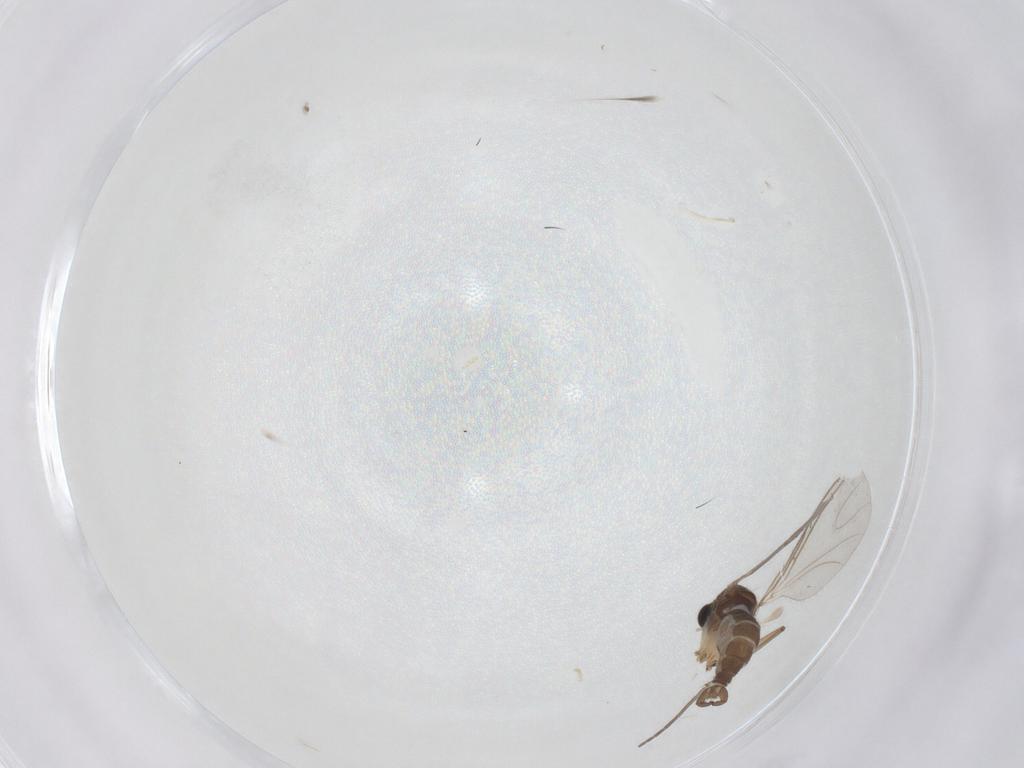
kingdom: Animalia
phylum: Arthropoda
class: Insecta
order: Diptera
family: Sciaridae
